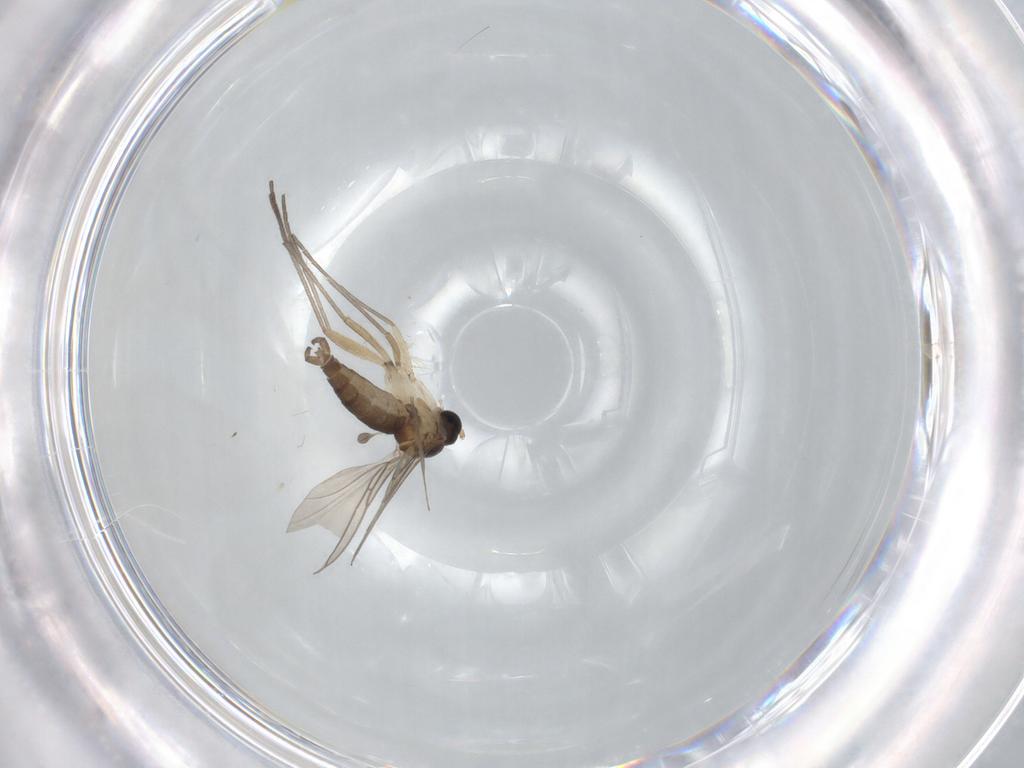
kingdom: Animalia
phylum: Arthropoda
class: Insecta
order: Diptera
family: Sciaridae
